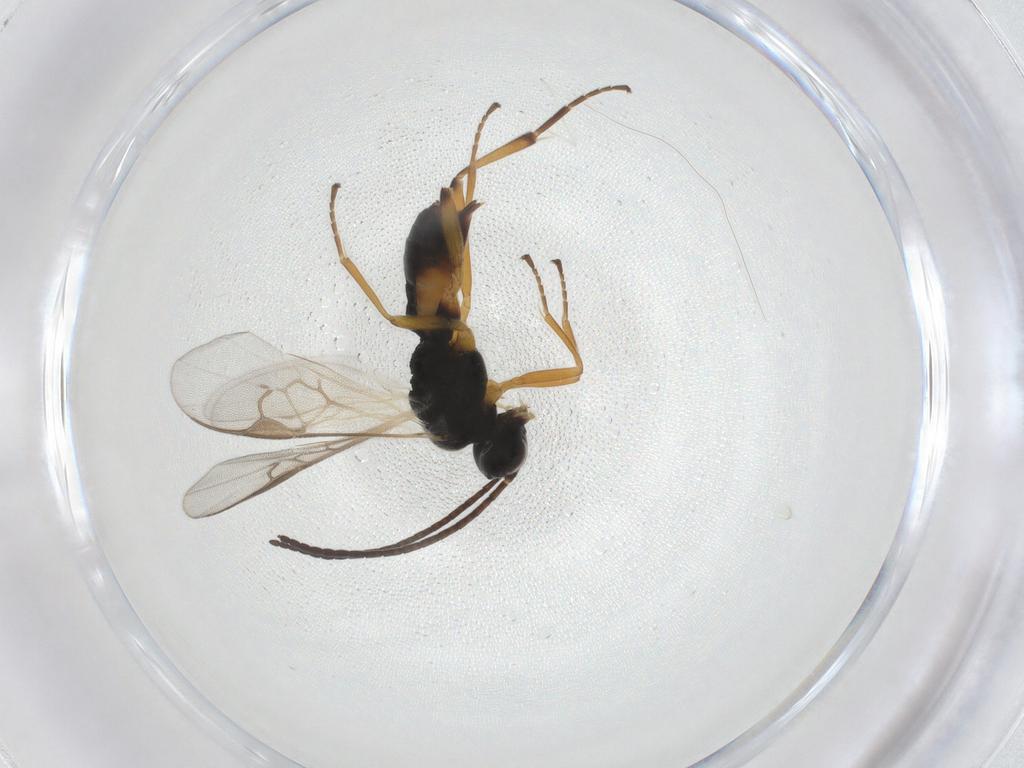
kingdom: Animalia
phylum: Arthropoda
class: Insecta
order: Hymenoptera
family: Braconidae
